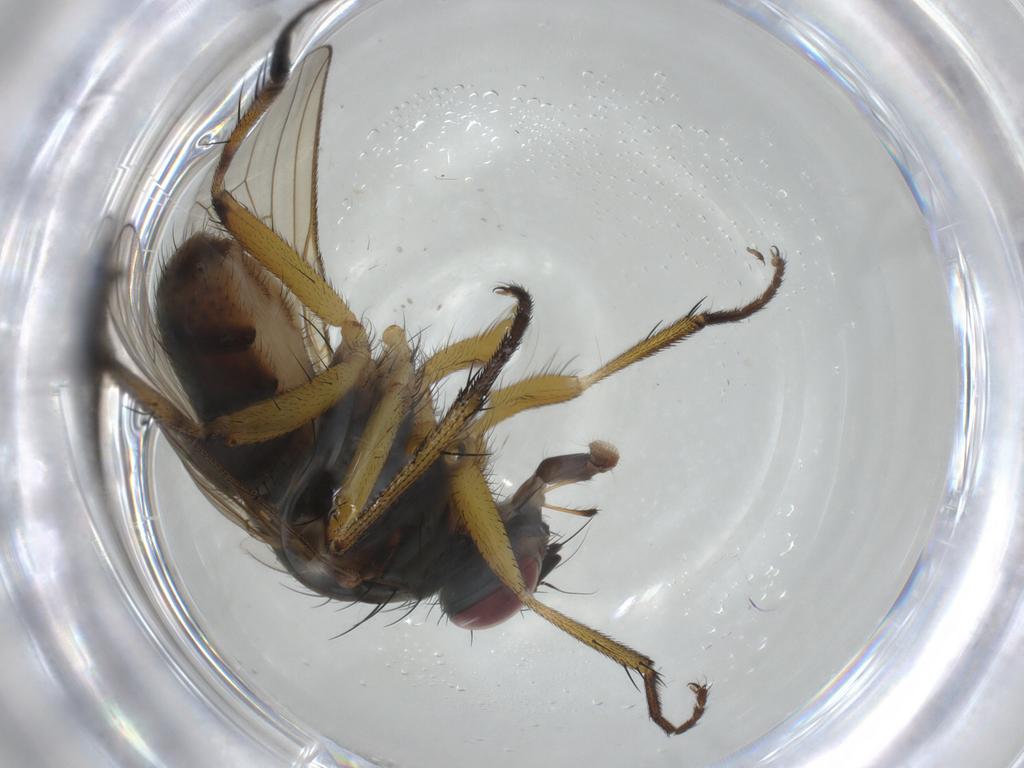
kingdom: Animalia
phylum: Arthropoda
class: Insecta
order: Diptera
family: Muscidae
